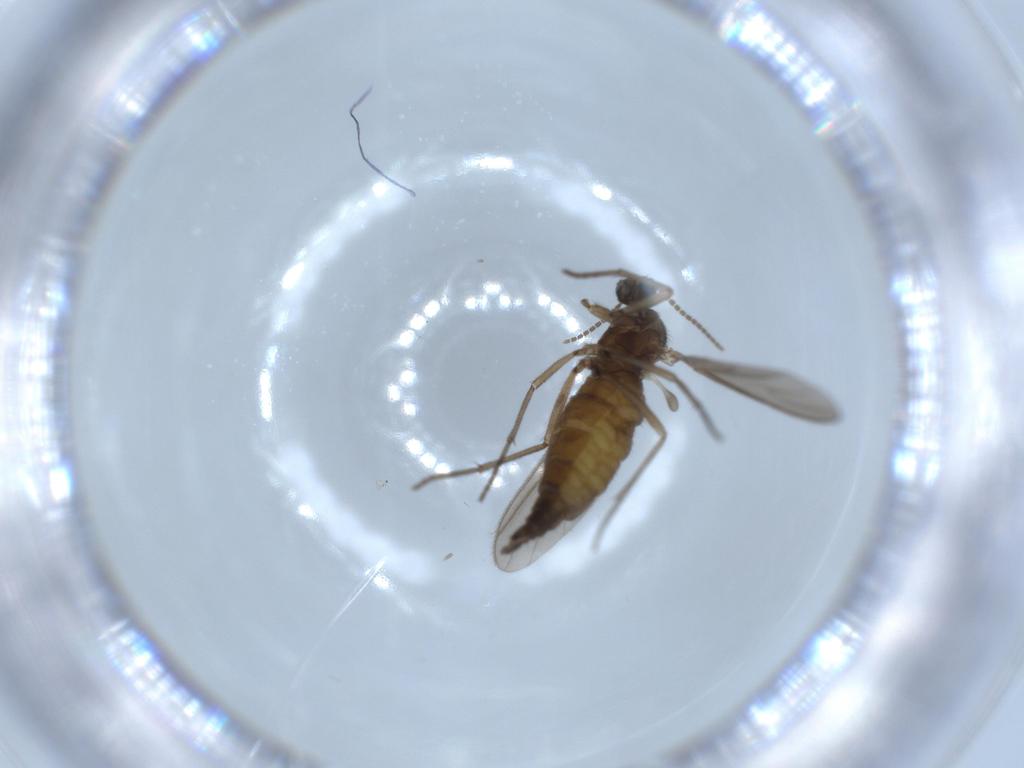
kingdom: Animalia
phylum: Arthropoda
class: Insecta
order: Diptera
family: Sciaridae
